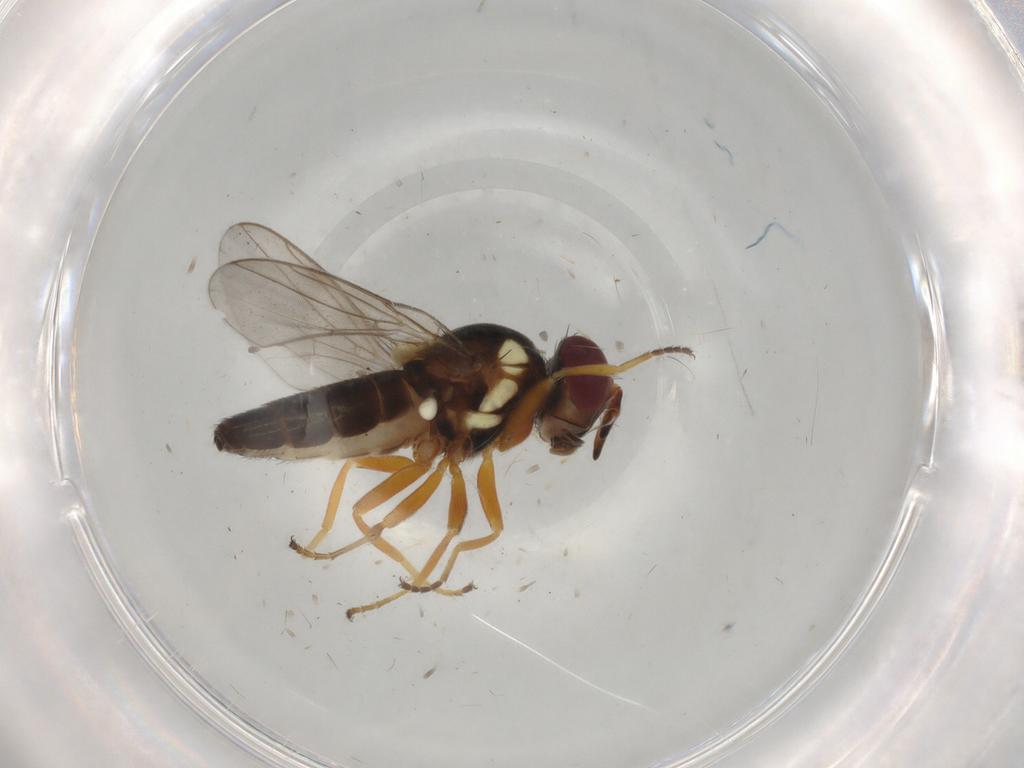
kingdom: Animalia
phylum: Arthropoda
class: Insecta
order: Diptera
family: Chloropidae
